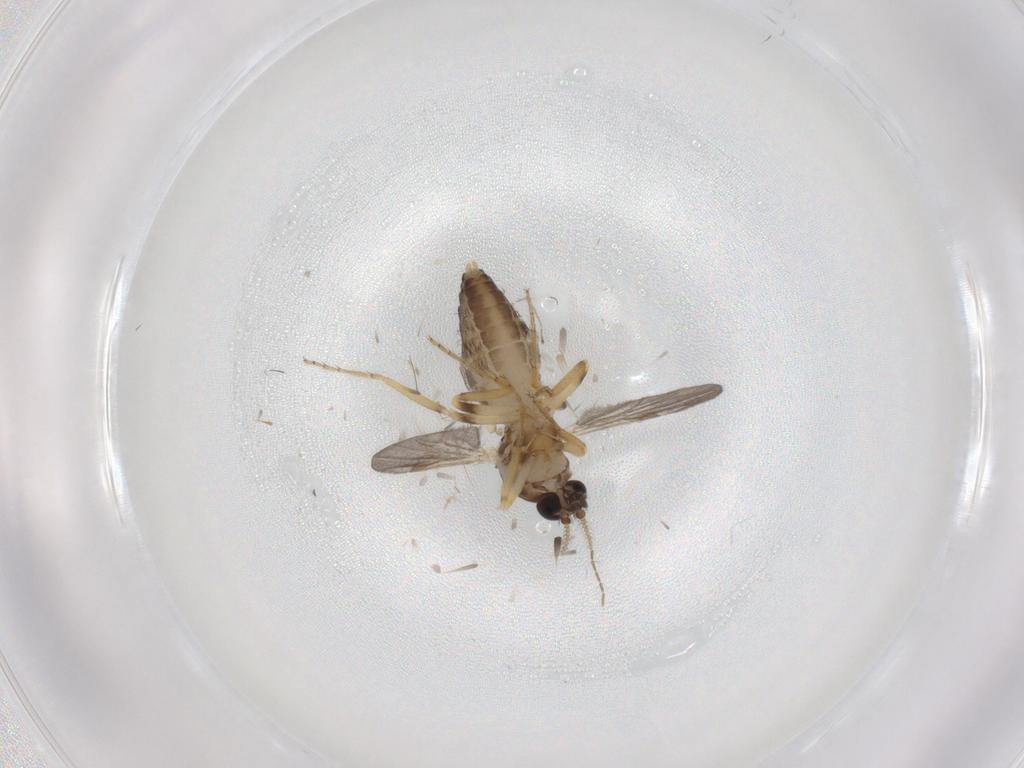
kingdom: Animalia
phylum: Arthropoda
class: Insecta
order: Diptera
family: Ceratopogonidae
